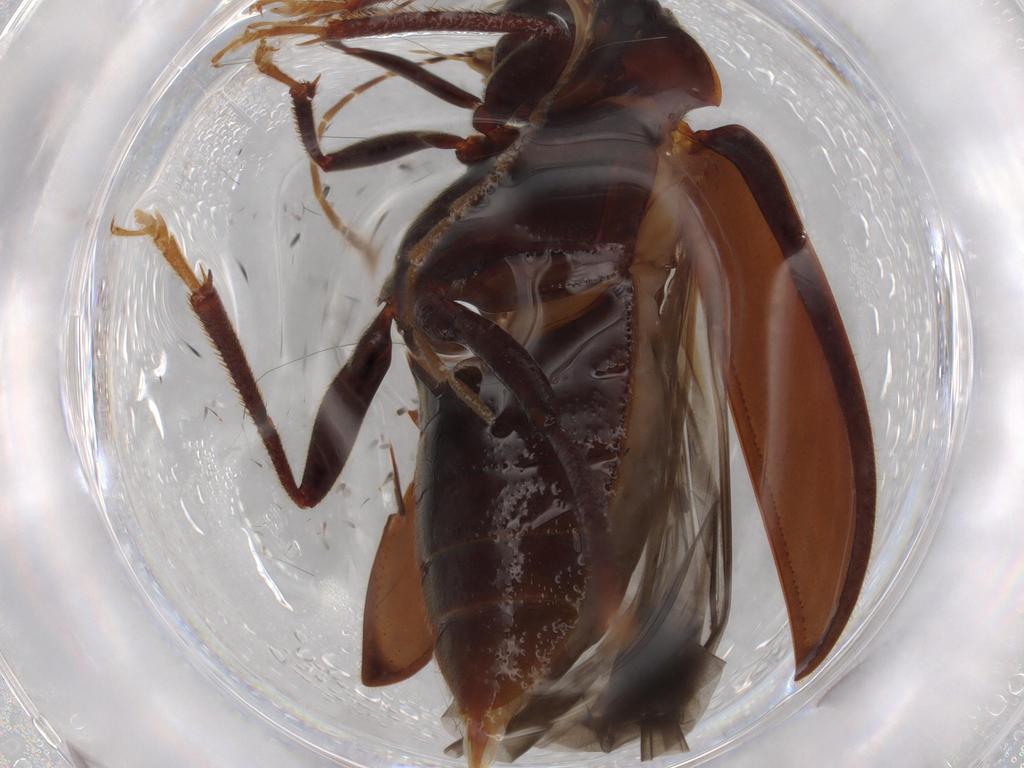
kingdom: Animalia
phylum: Arthropoda
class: Insecta
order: Coleoptera
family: Ptilodactylidae
